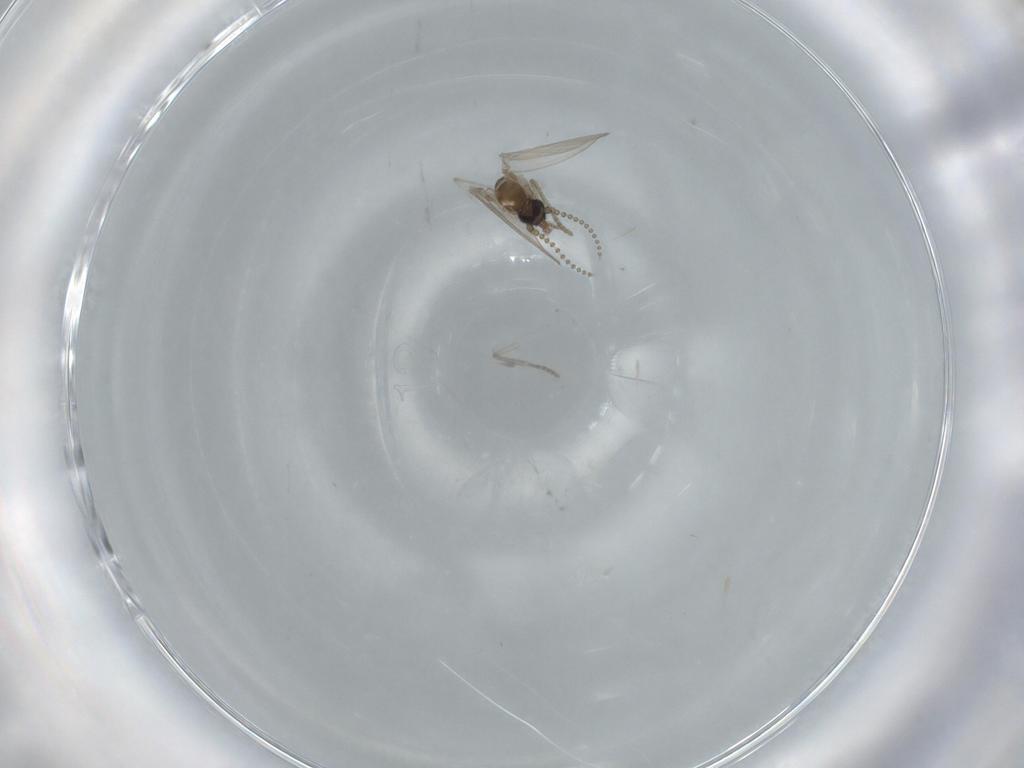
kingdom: Animalia
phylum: Arthropoda
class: Insecta
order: Diptera
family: Psychodidae
